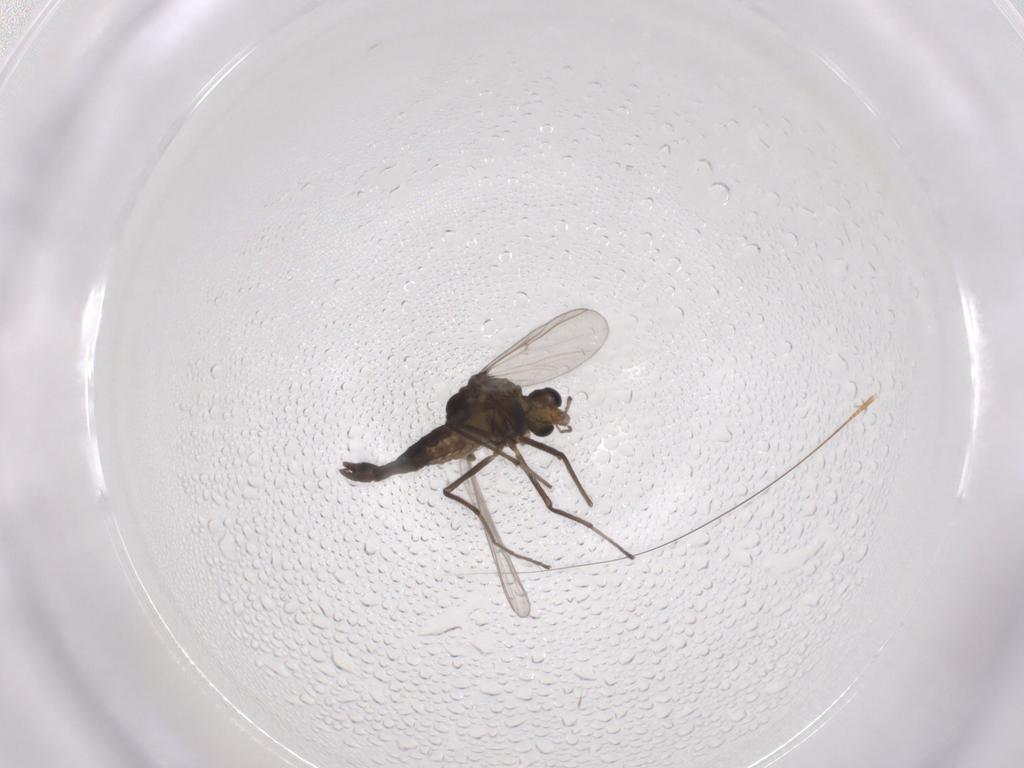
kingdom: Animalia
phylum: Arthropoda
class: Insecta
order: Diptera
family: Chironomidae
